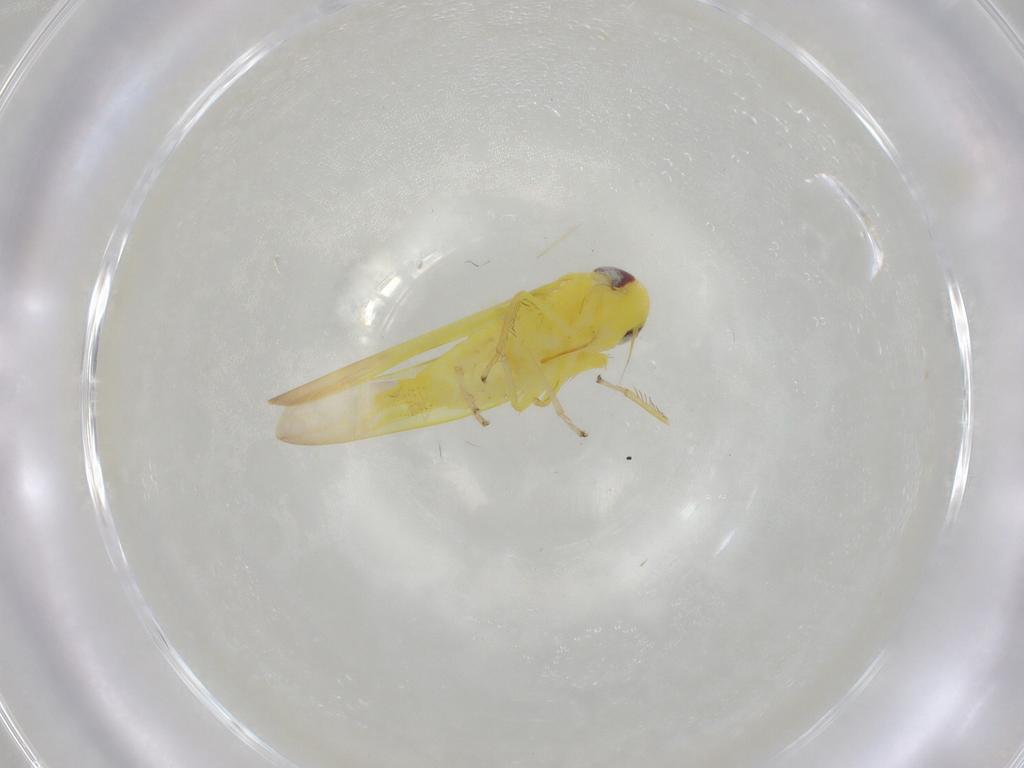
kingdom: Animalia
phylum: Arthropoda
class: Insecta
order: Hemiptera
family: Cicadellidae
